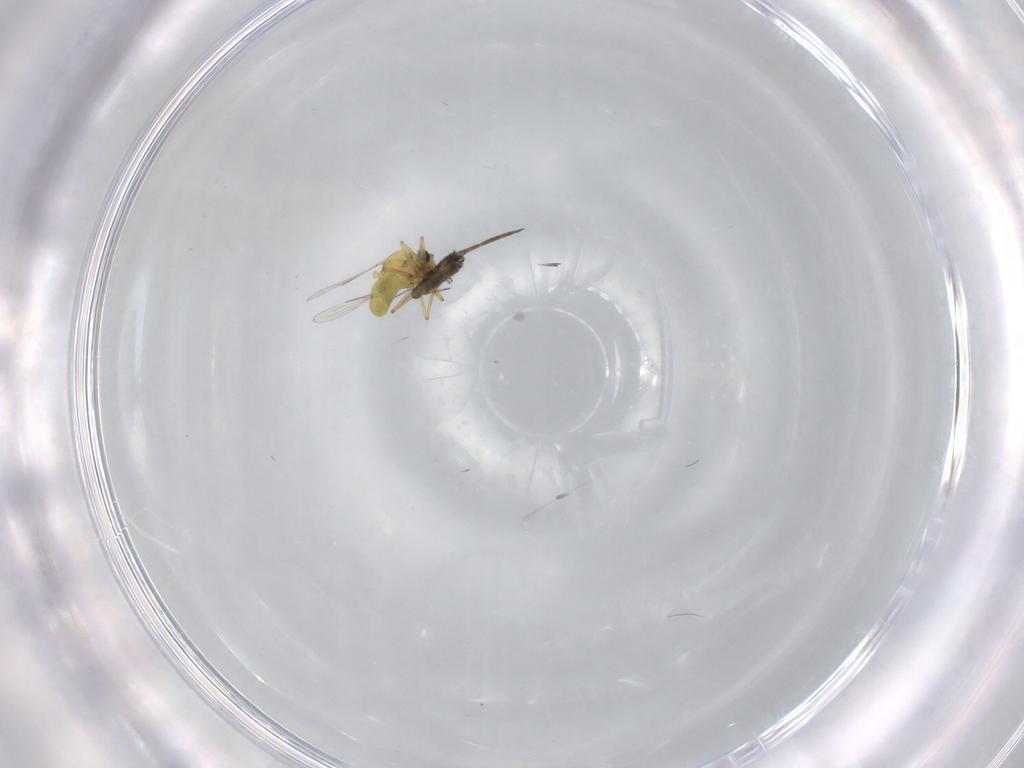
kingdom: Animalia
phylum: Arthropoda
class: Insecta
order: Diptera
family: Ceratopogonidae
